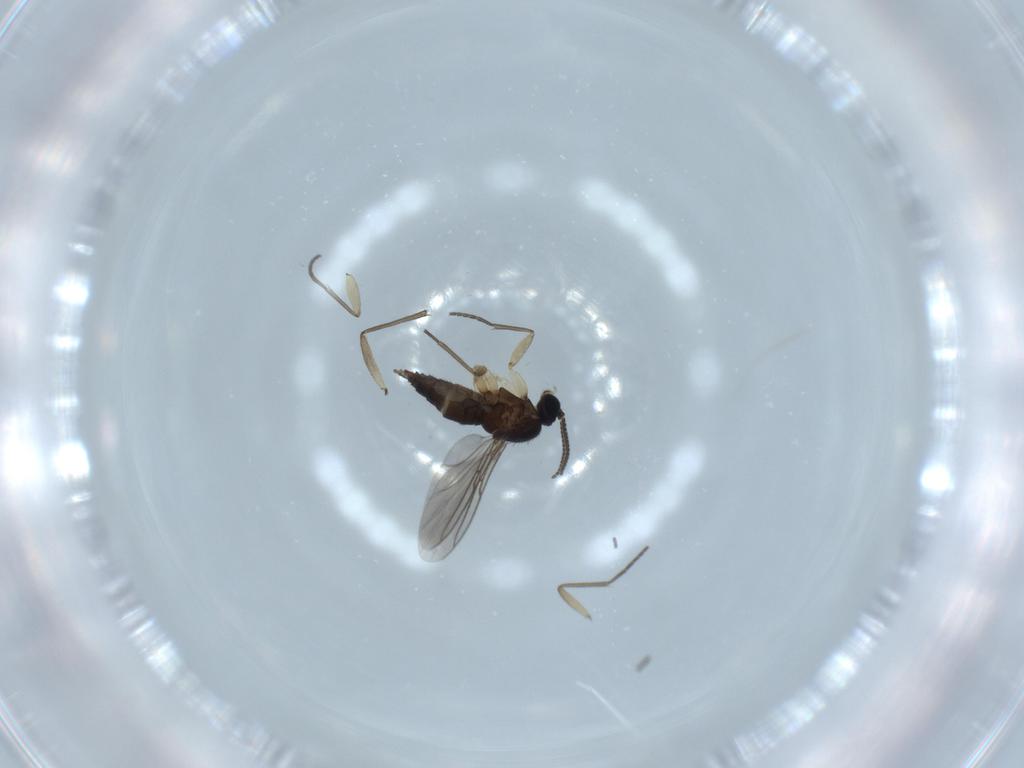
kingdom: Animalia
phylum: Arthropoda
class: Insecta
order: Diptera
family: Sciaridae
